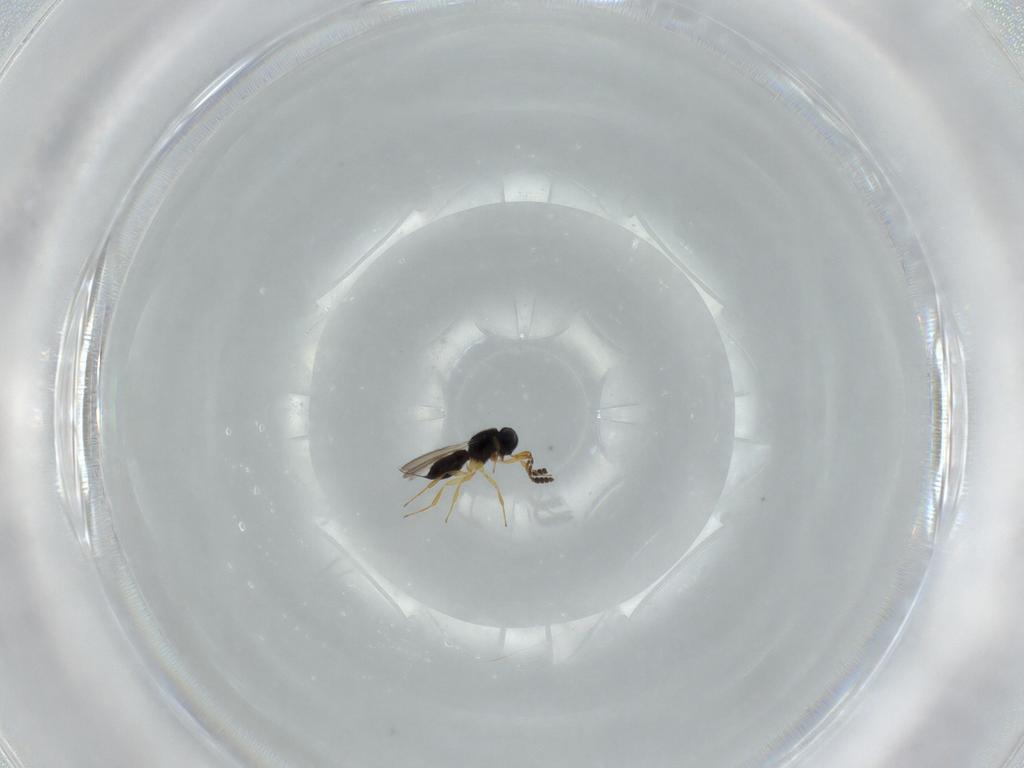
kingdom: Animalia
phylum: Arthropoda
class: Insecta
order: Hymenoptera
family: Scelionidae
